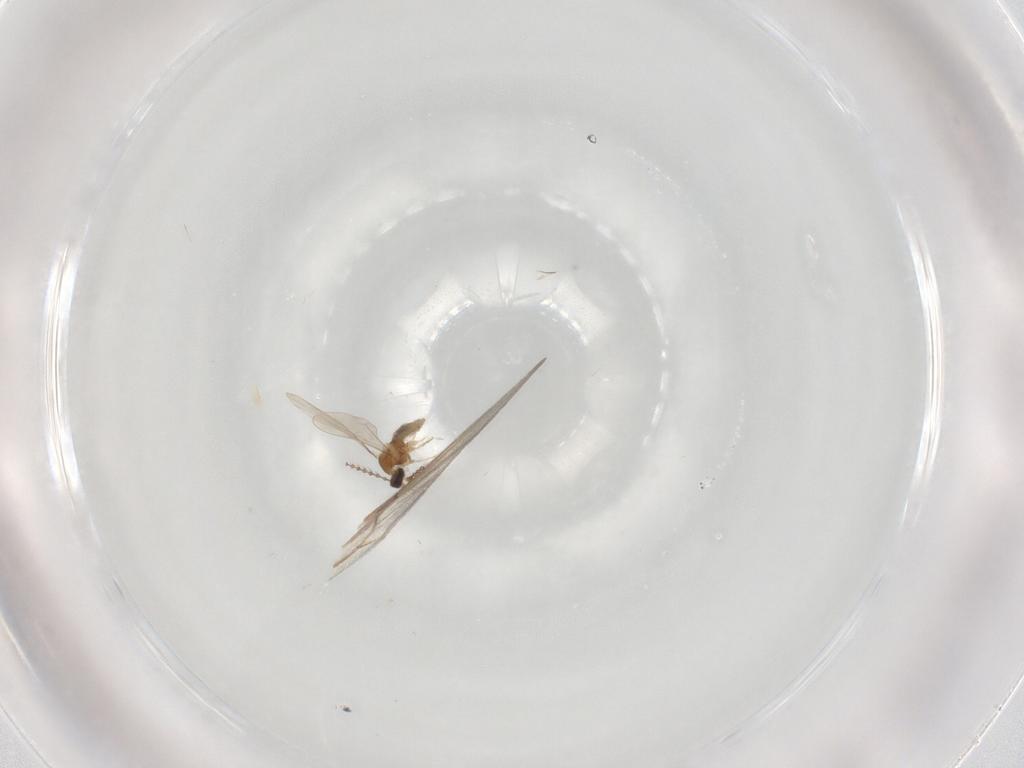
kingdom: Animalia
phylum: Arthropoda
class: Insecta
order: Diptera
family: Cecidomyiidae
